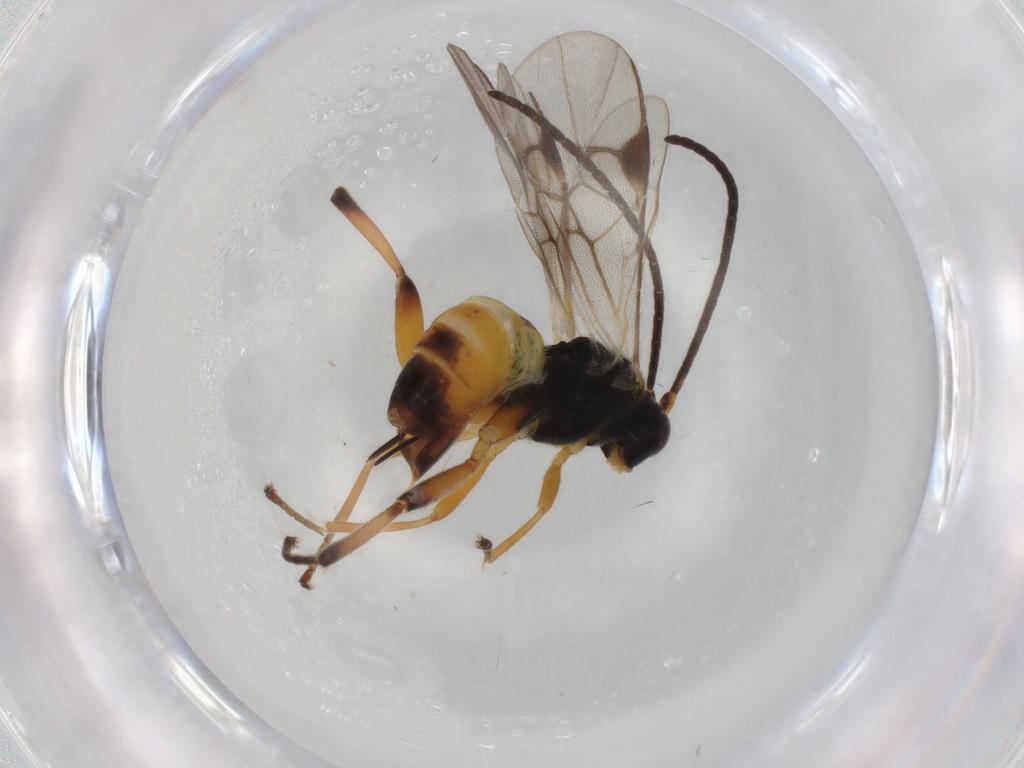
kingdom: Animalia
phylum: Arthropoda
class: Insecta
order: Hymenoptera
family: Braconidae
